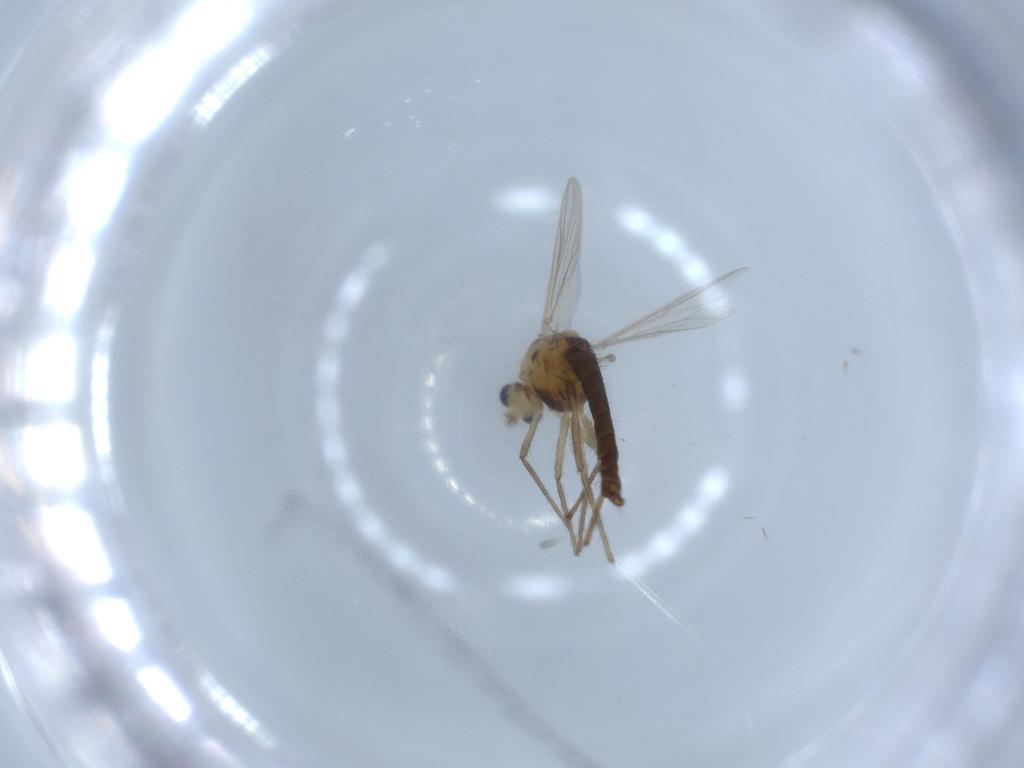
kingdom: Animalia
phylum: Arthropoda
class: Insecta
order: Diptera
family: Chironomidae
